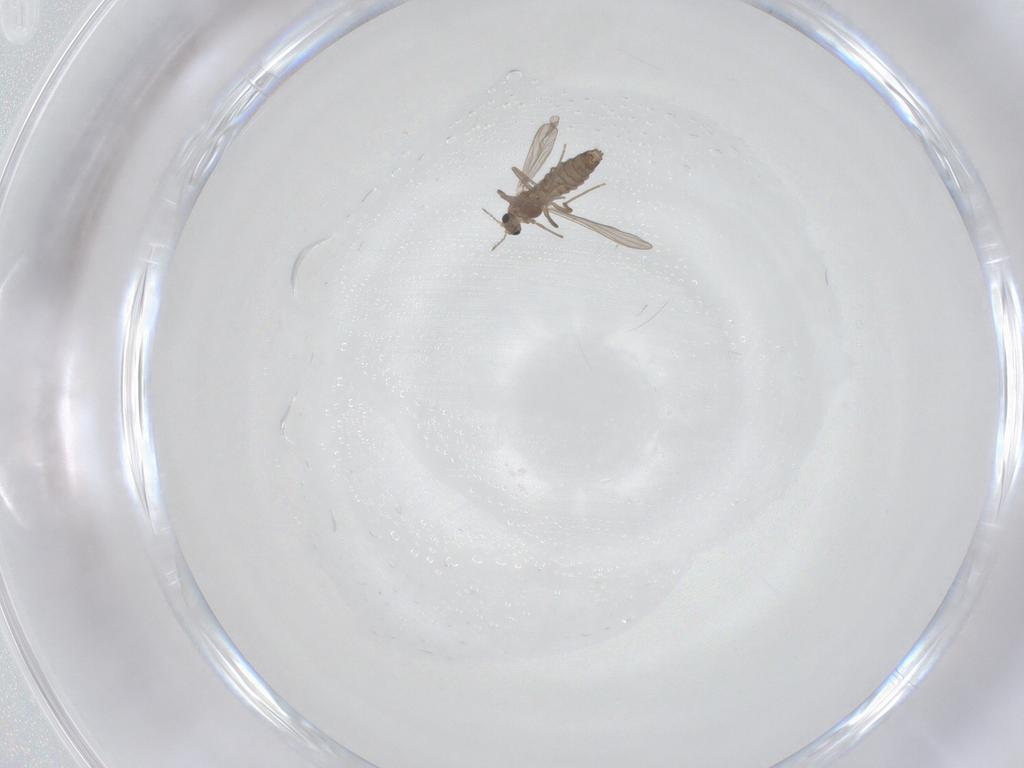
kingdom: Animalia
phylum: Arthropoda
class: Insecta
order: Diptera
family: Chironomidae
